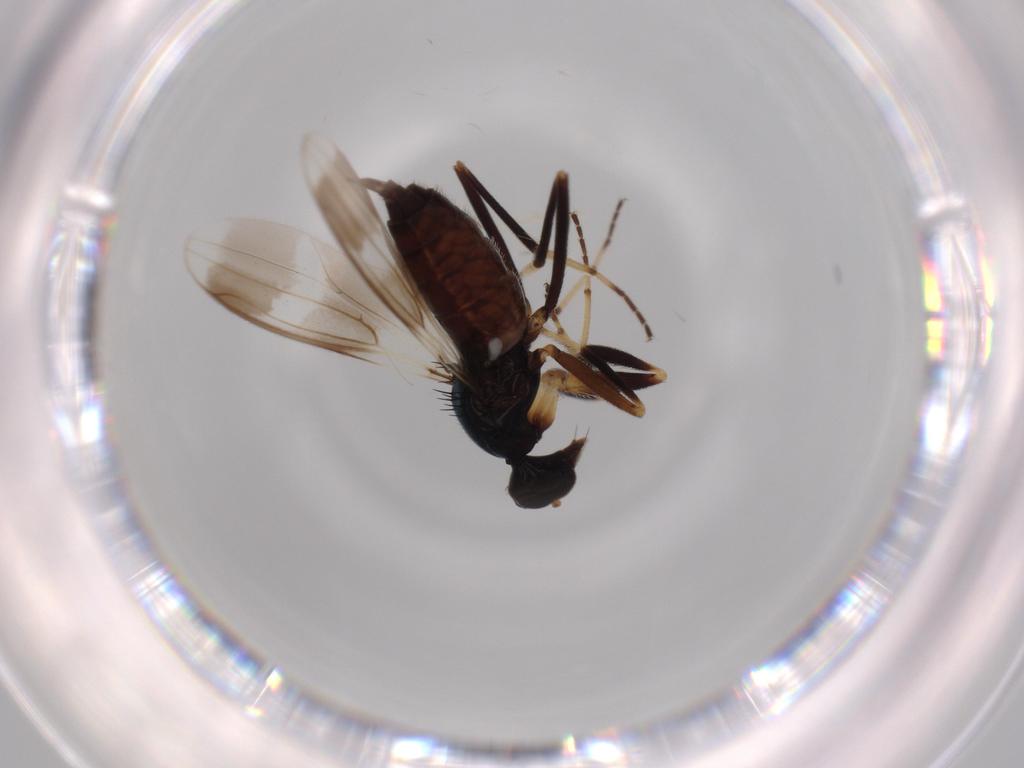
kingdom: Animalia
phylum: Arthropoda
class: Insecta
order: Diptera
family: Hybotidae
